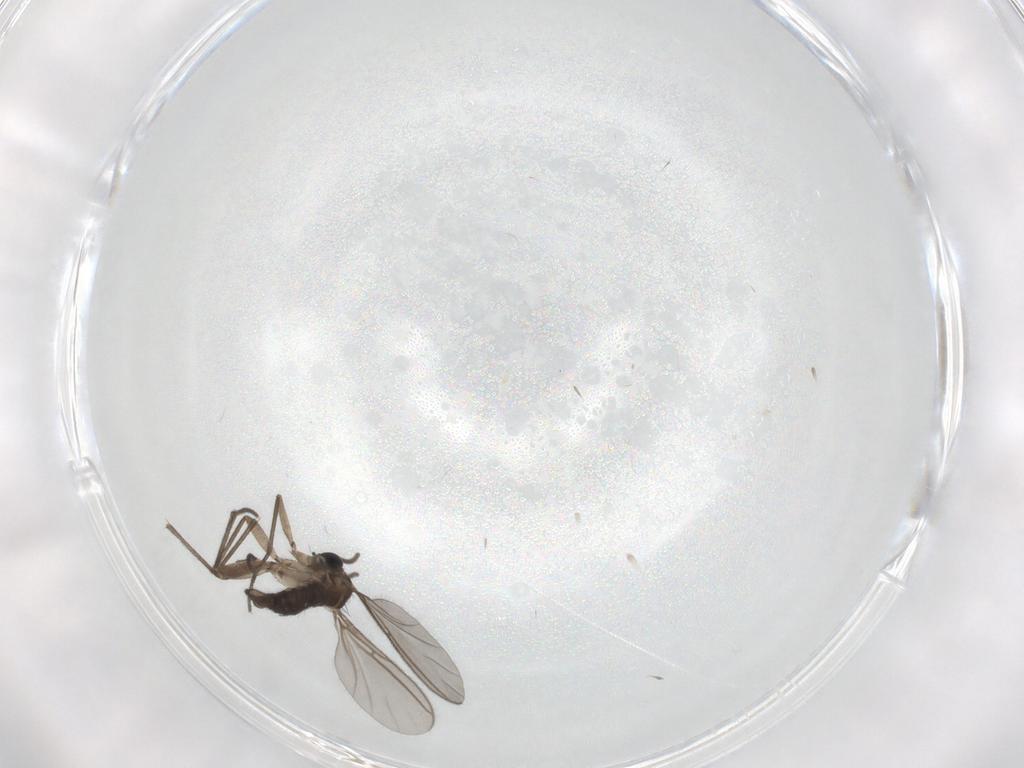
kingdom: Animalia
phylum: Arthropoda
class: Insecta
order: Diptera
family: Sciaridae
